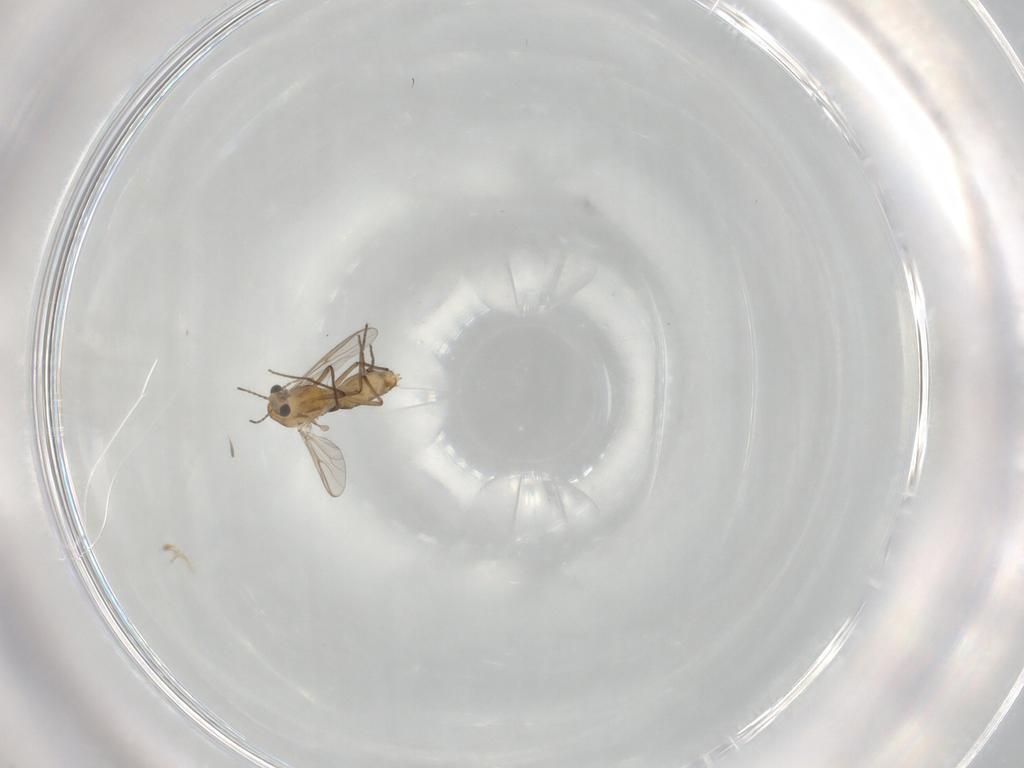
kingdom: Animalia
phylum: Arthropoda
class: Insecta
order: Diptera
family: Chironomidae
